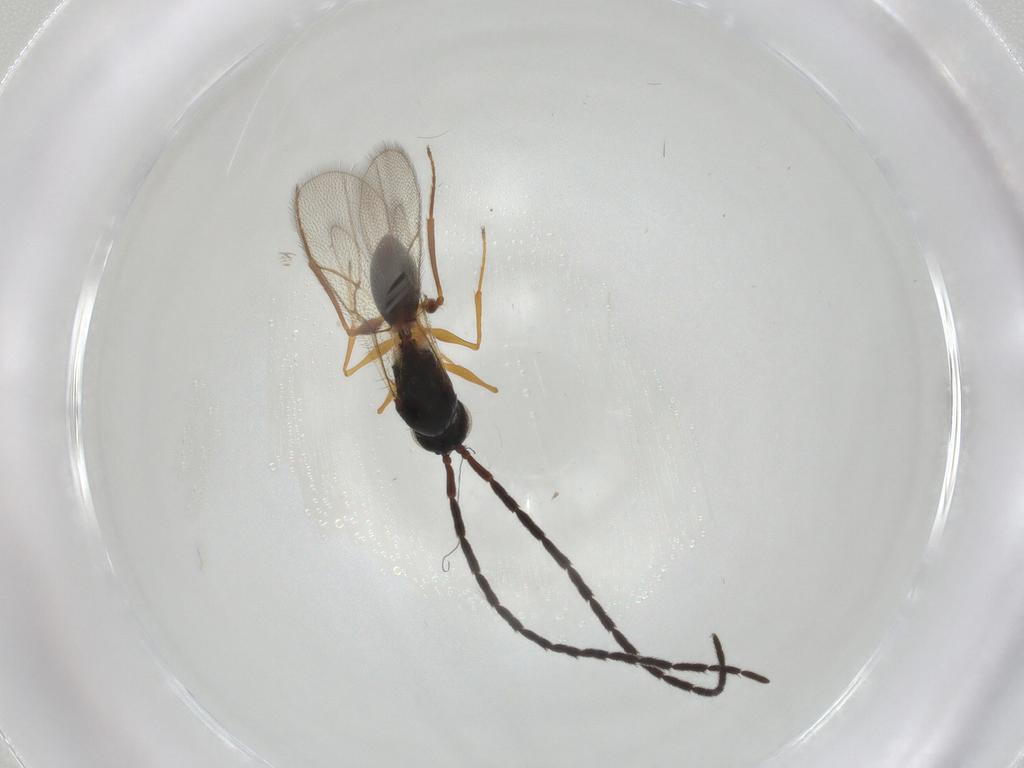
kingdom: Animalia
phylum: Arthropoda
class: Insecta
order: Hymenoptera
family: Figitidae
